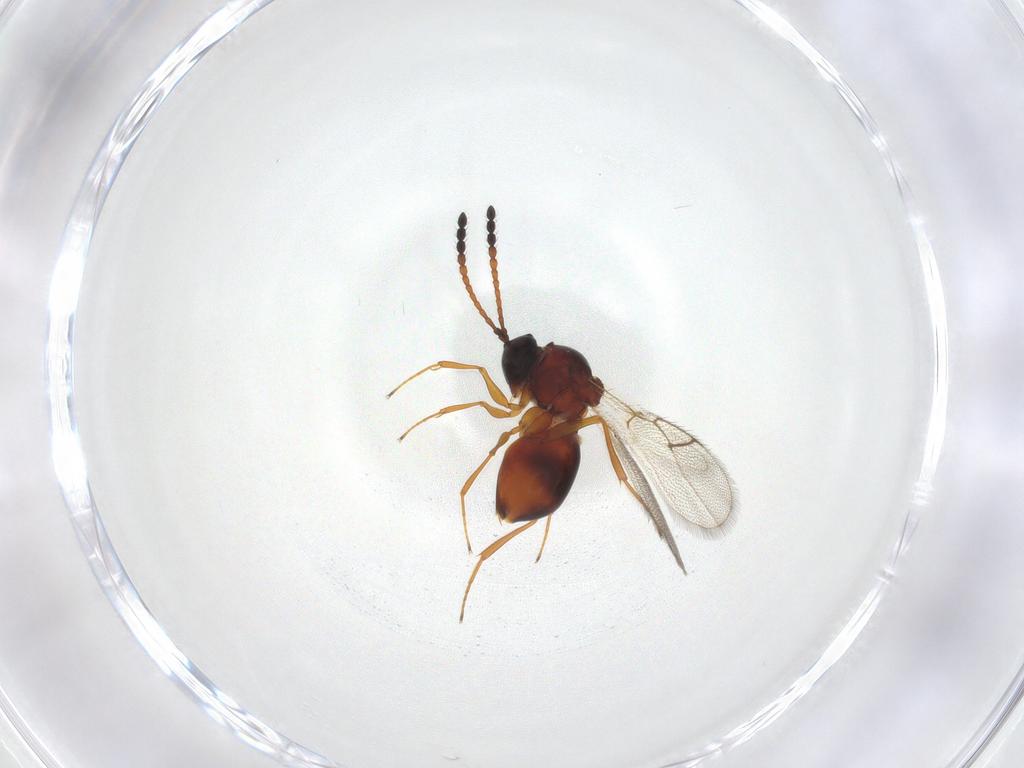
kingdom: Animalia
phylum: Arthropoda
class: Insecta
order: Hymenoptera
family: Figitidae
